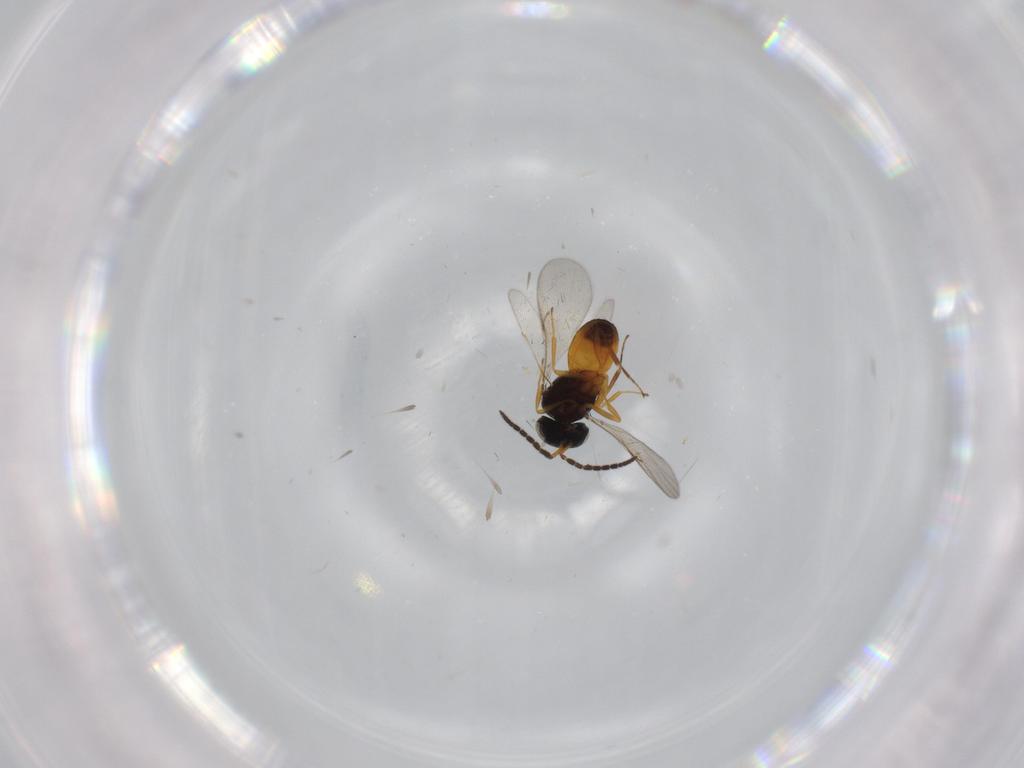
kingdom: Animalia
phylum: Arthropoda
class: Insecta
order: Hymenoptera
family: Scelionidae
